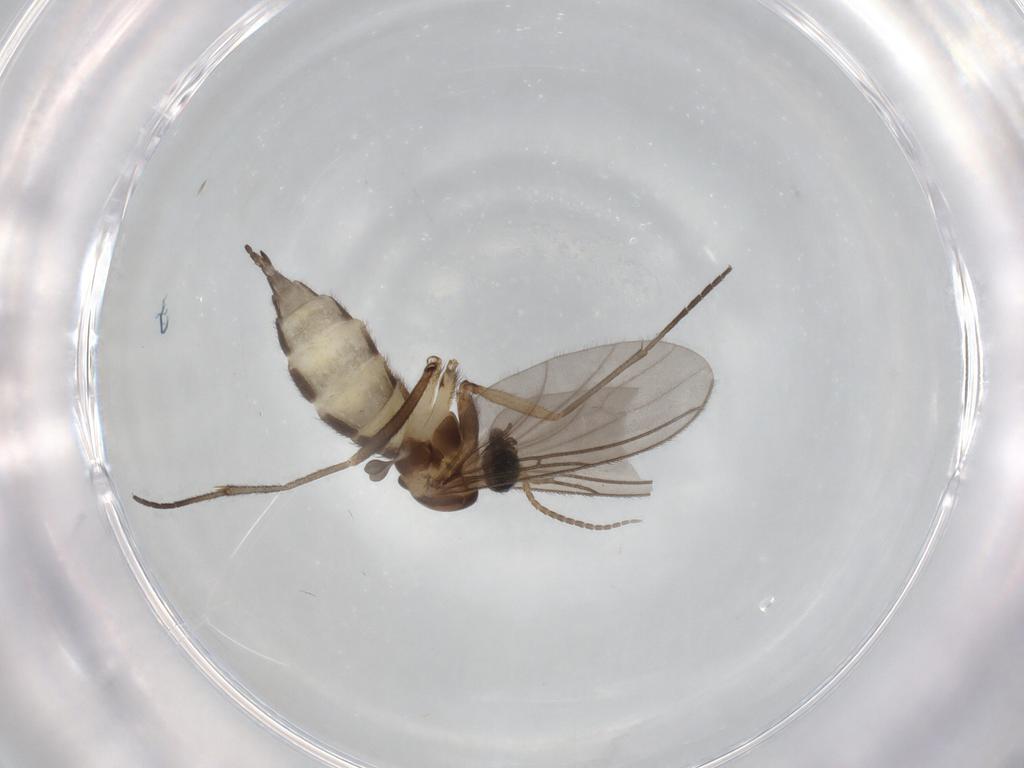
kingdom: Animalia
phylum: Arthropoda
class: Insecta
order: Diptera
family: Sciaridae
